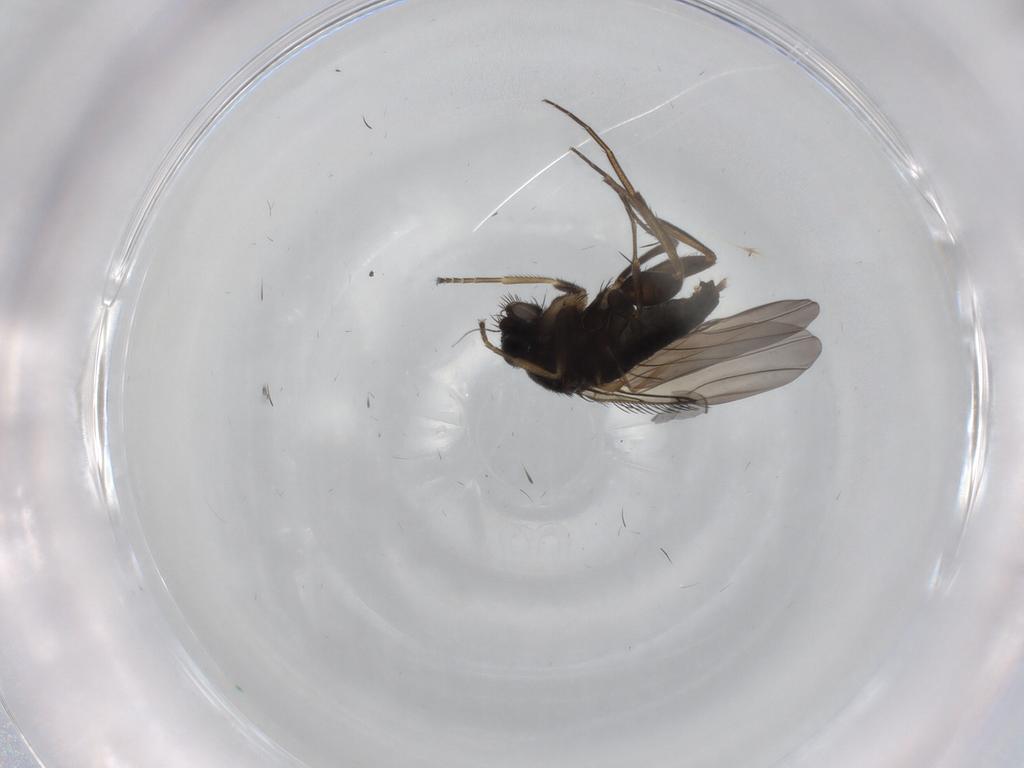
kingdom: Animalia
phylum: Arthropoda
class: Insecta
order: Diptera
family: Phoridae
